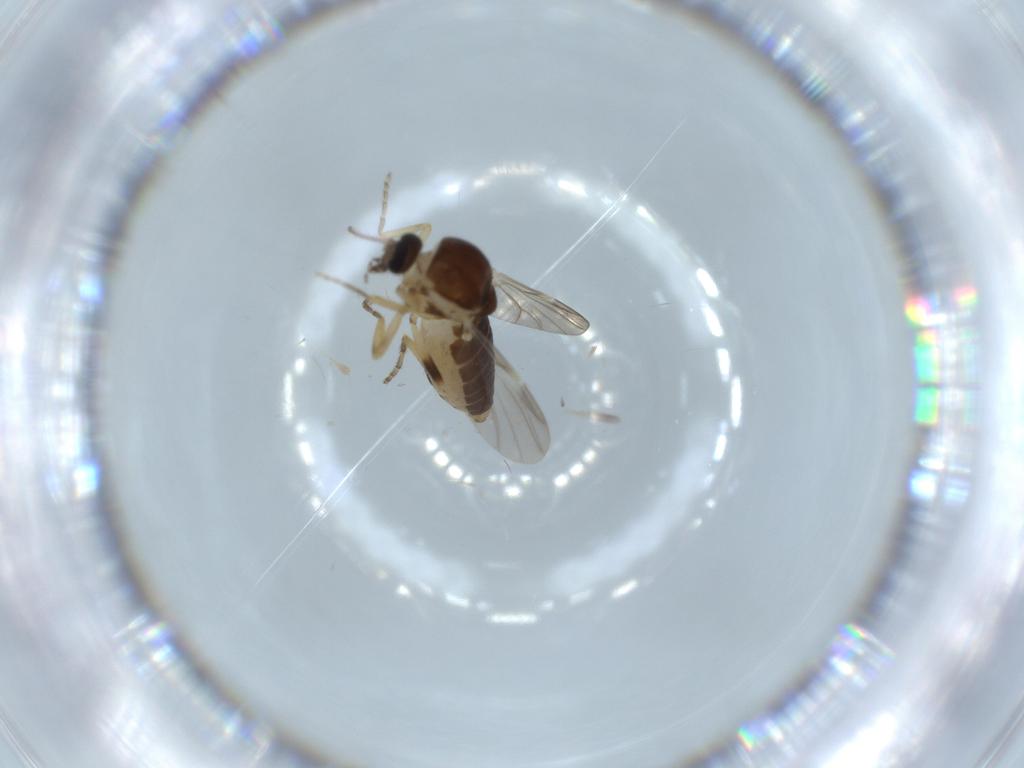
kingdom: Animalia
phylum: Arthropoda
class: Insecta
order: Diptera
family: Ceratopogonidae
